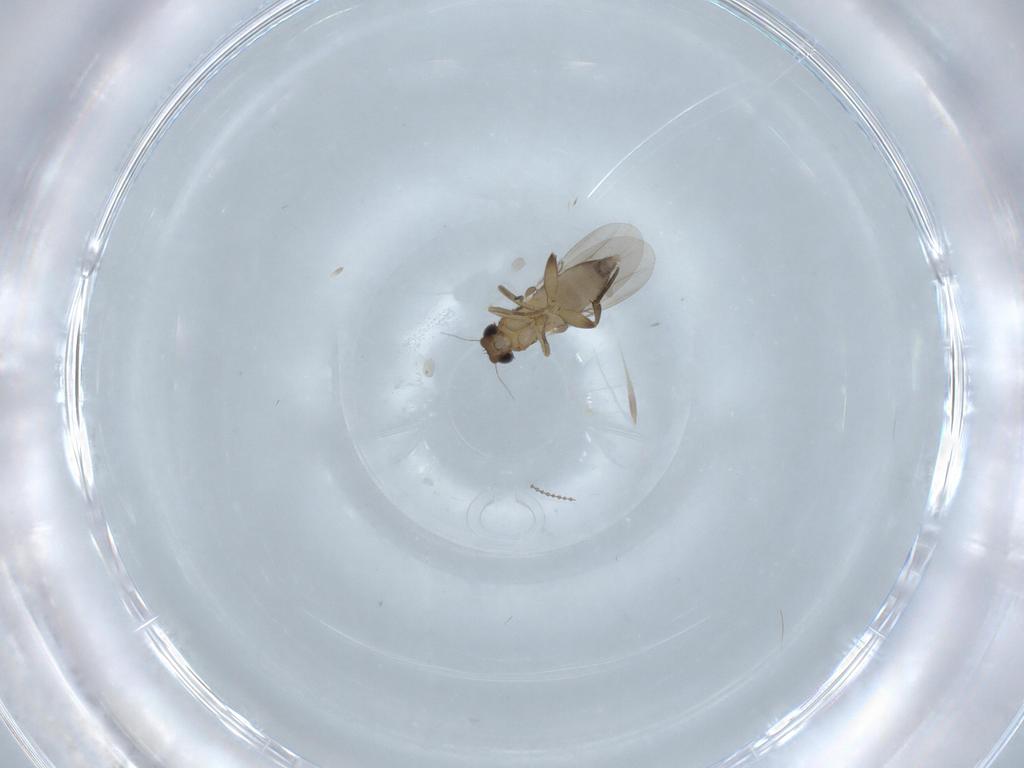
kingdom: Animalia
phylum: Arthropoda
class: Insecta
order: Diptera
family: Phoridae
